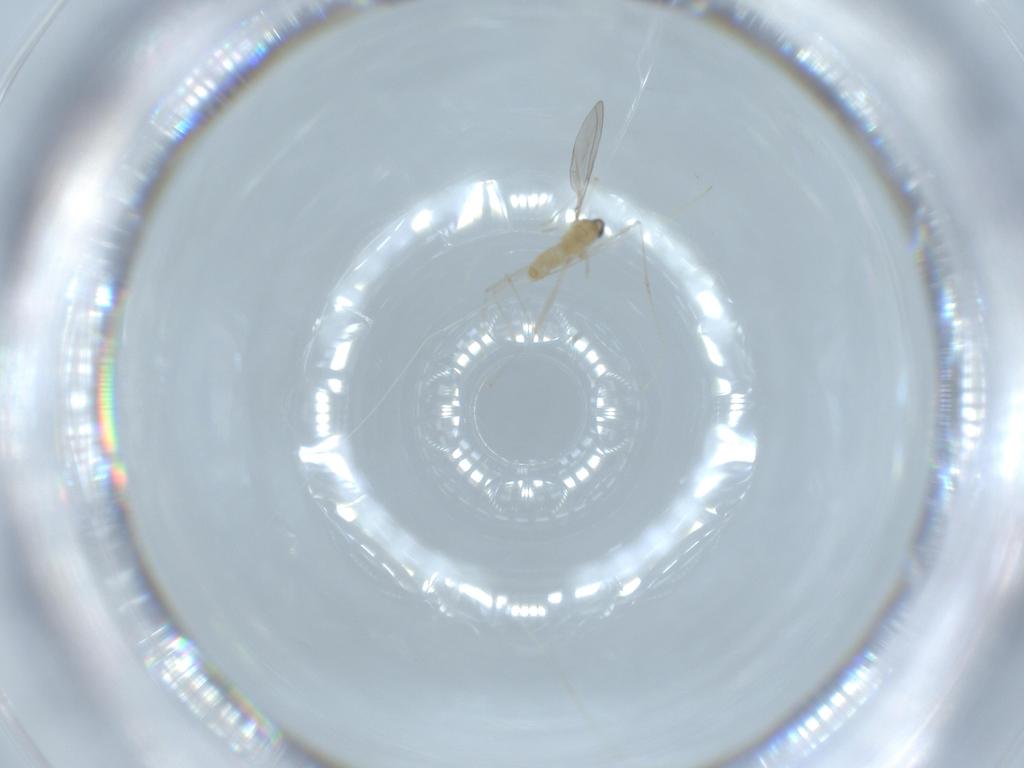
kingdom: Animalia
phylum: Arthropoda
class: Insecta
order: Diptera
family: Cecidomyiidae
